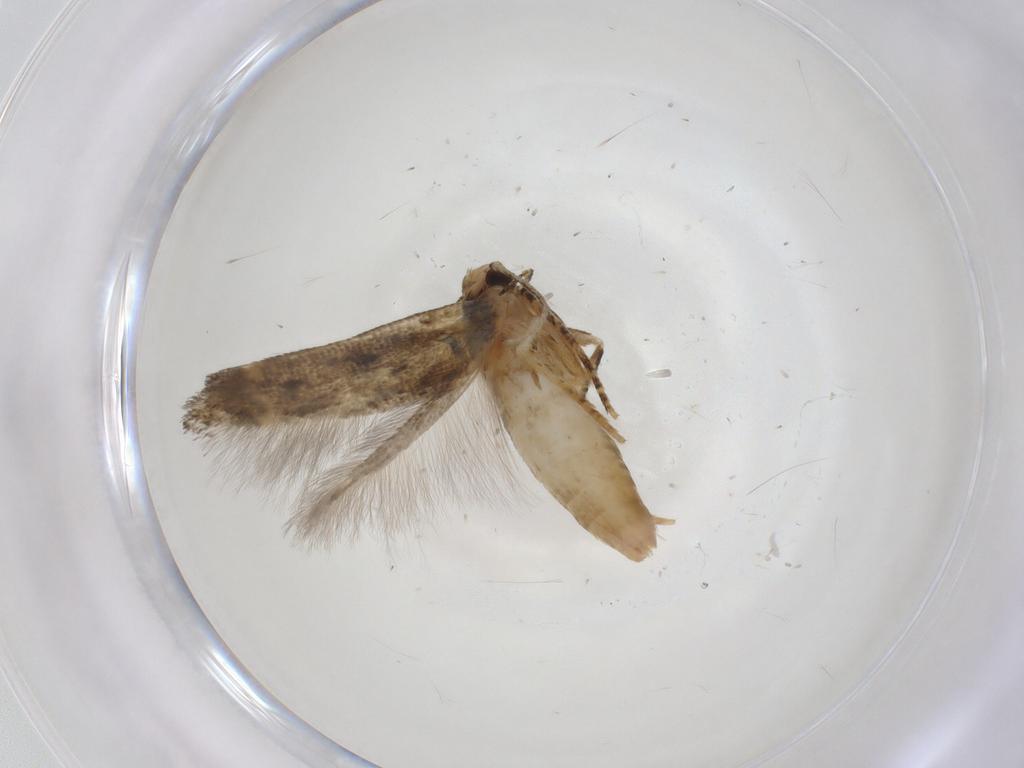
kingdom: Animalia
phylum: Arthropoda
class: Insecta
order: Lepidoptera
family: Gelechiidae
